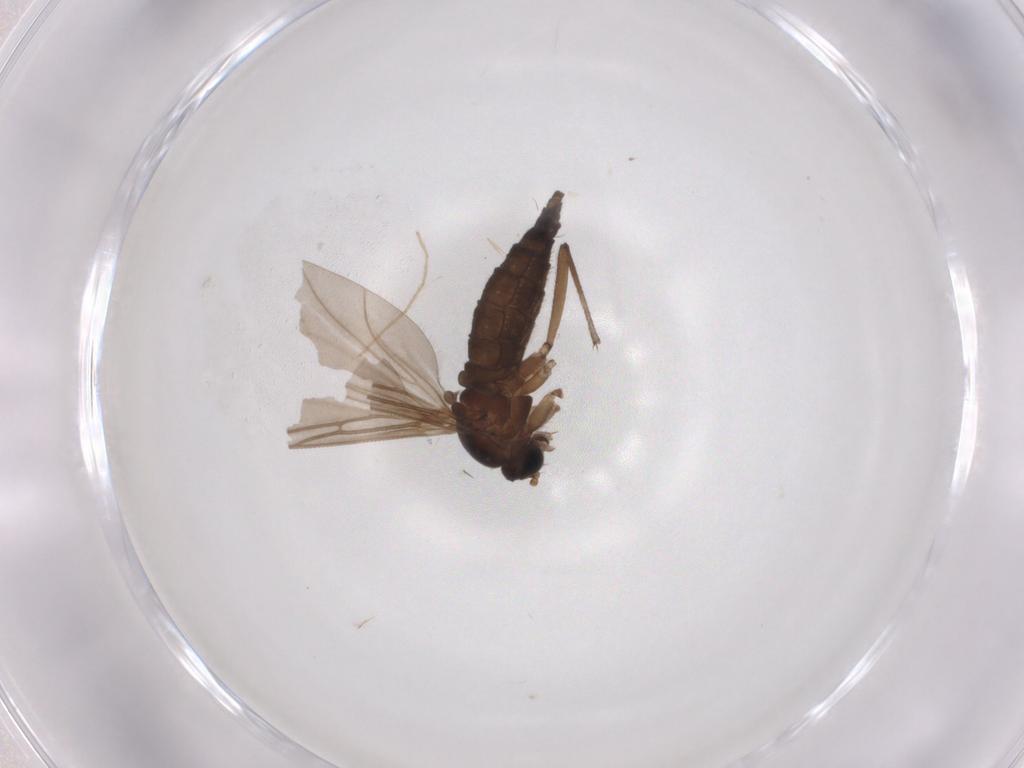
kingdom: Animalia
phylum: Arthropoda
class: Insecta
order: Diptera
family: Sciaridae
